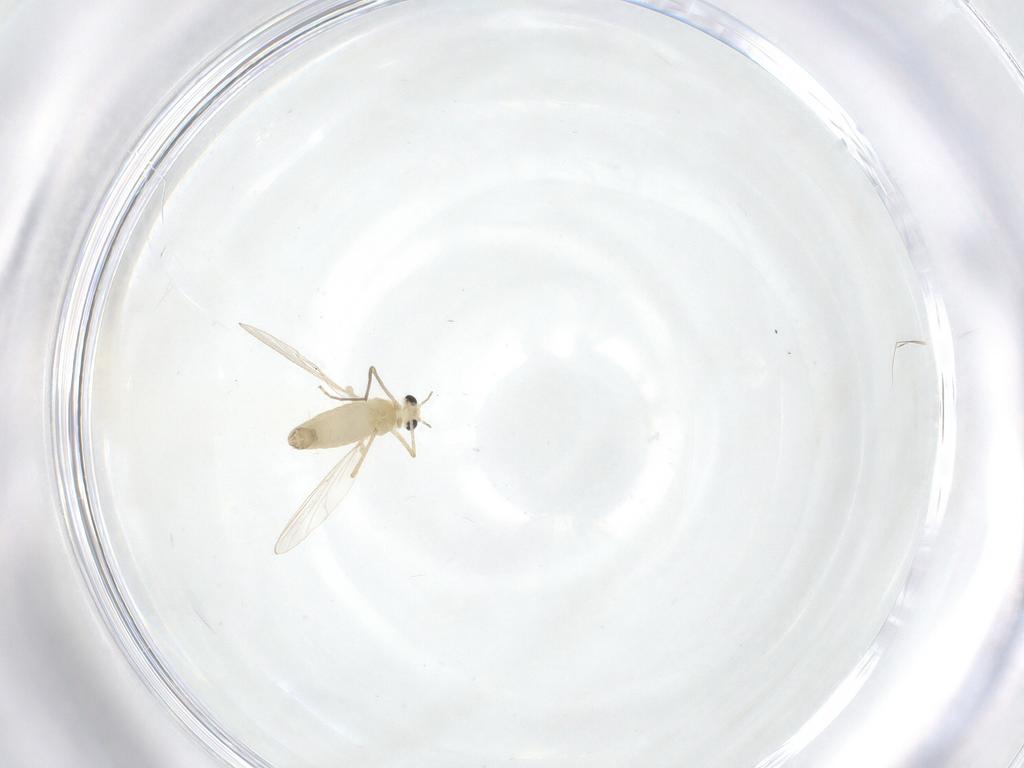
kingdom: Animalia
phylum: Arthropoda
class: Insecta
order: Diptera
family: Chironomidae
